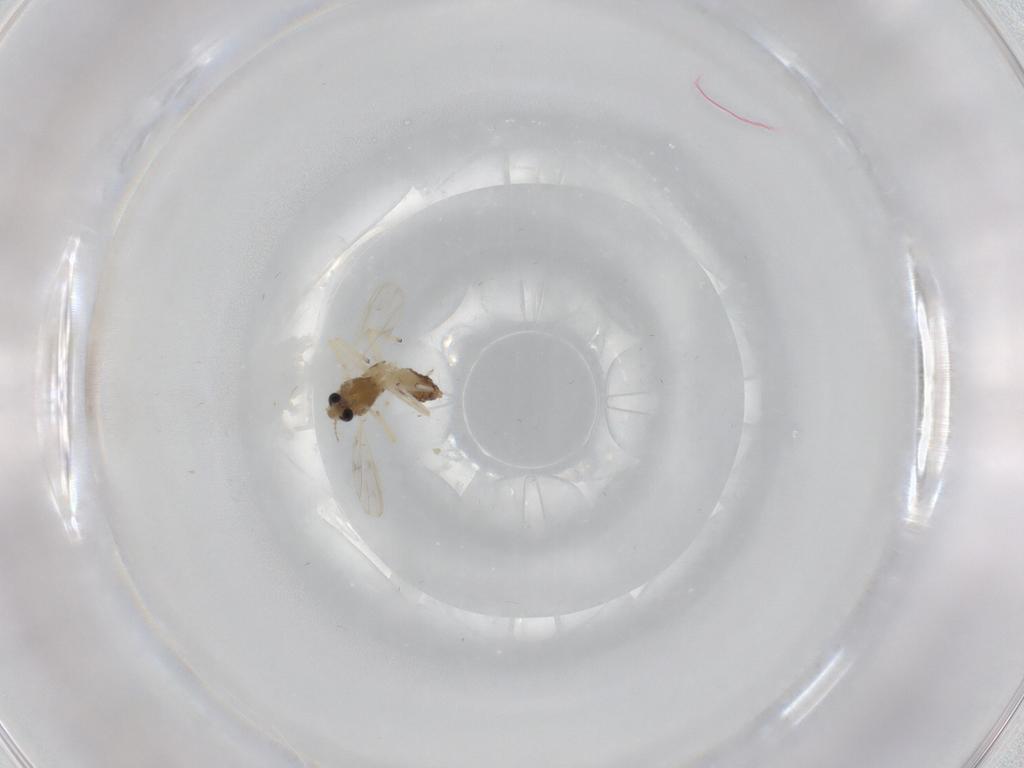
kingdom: Animalia
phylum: Arthropoda
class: Insecta
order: Diptera
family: Chironomidae
